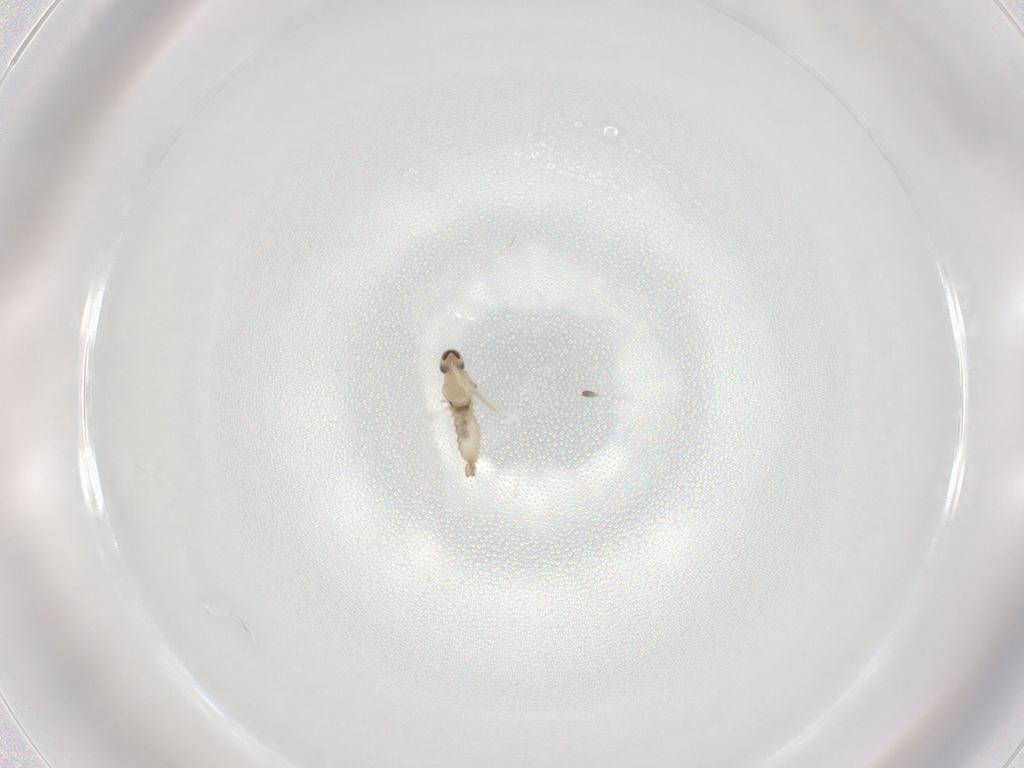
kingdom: Animalia
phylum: Arthropoda
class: Insecta
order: Diptera
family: Cecidomyiidae
